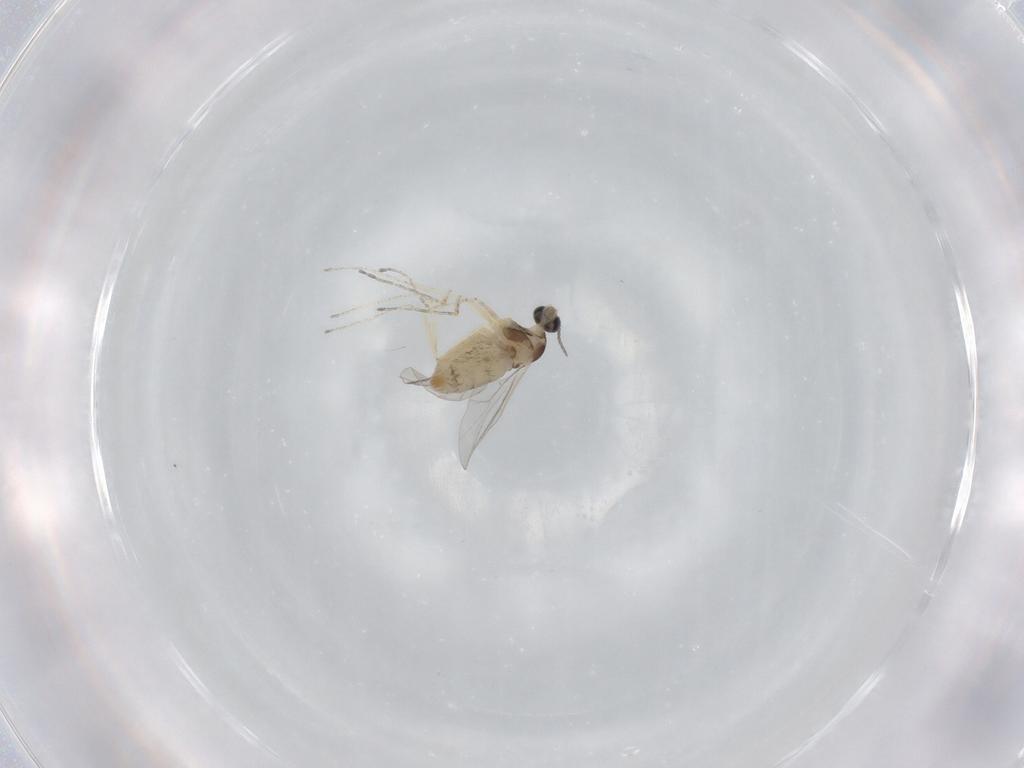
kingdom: Animalia
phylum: Arthropoda
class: Insecta
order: Diptera
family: Cecidomyiidae
